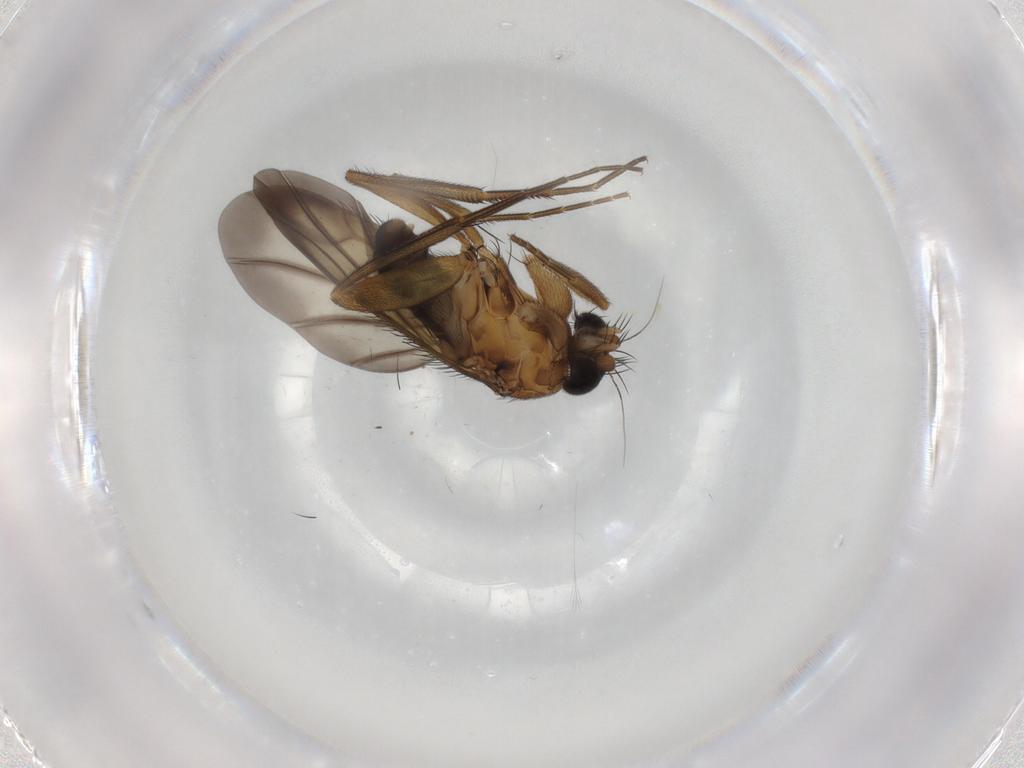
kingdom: Animalia
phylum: Arthropoda
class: Insecta
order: Diptera
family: Phoridae
